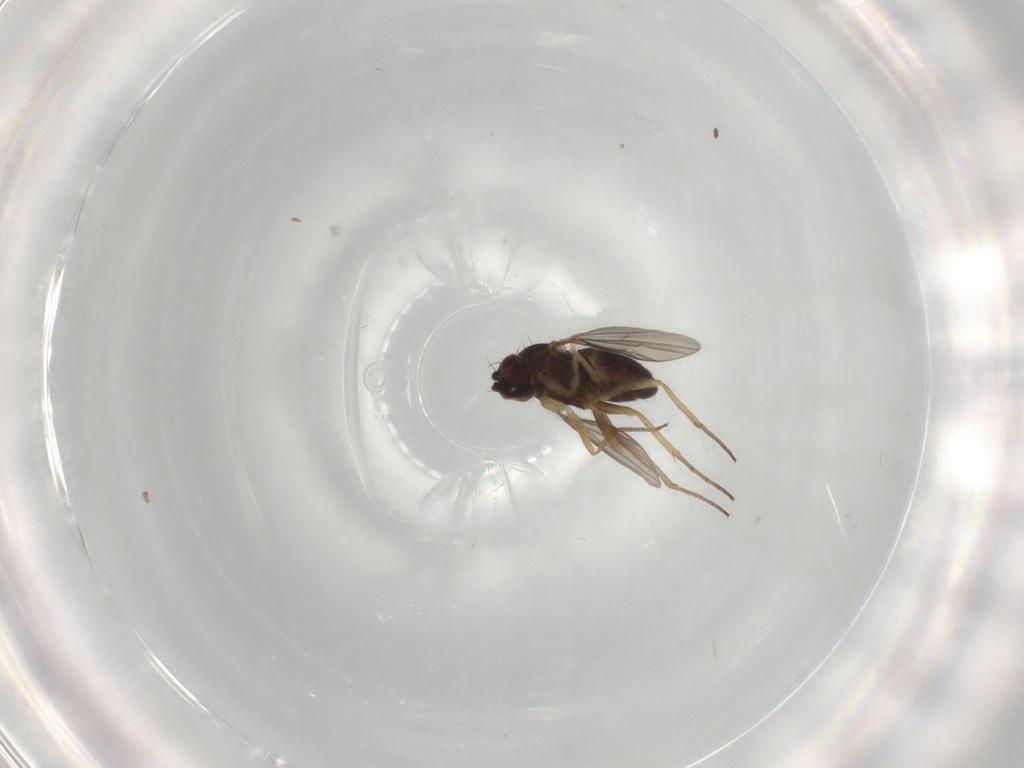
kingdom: Animalia
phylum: Arthropoda
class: Insecta
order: Diptera
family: Dolichopodidae
